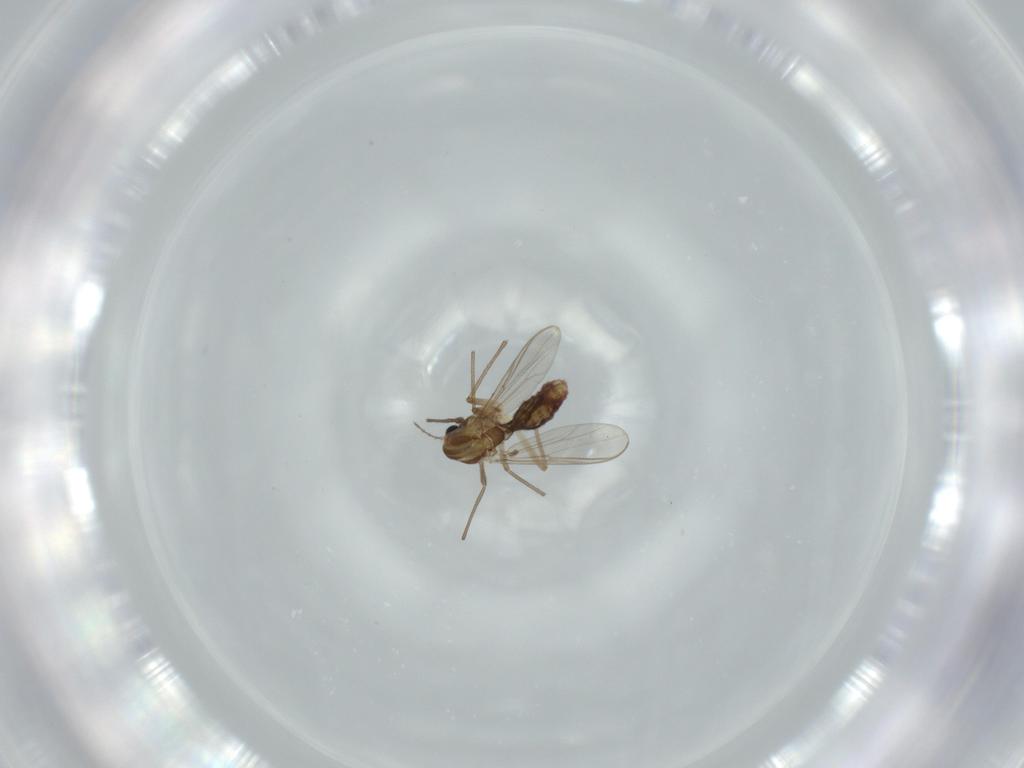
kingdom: Animalia
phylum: Arthropoda
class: Insecta
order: Diptera
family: Chironomidae
